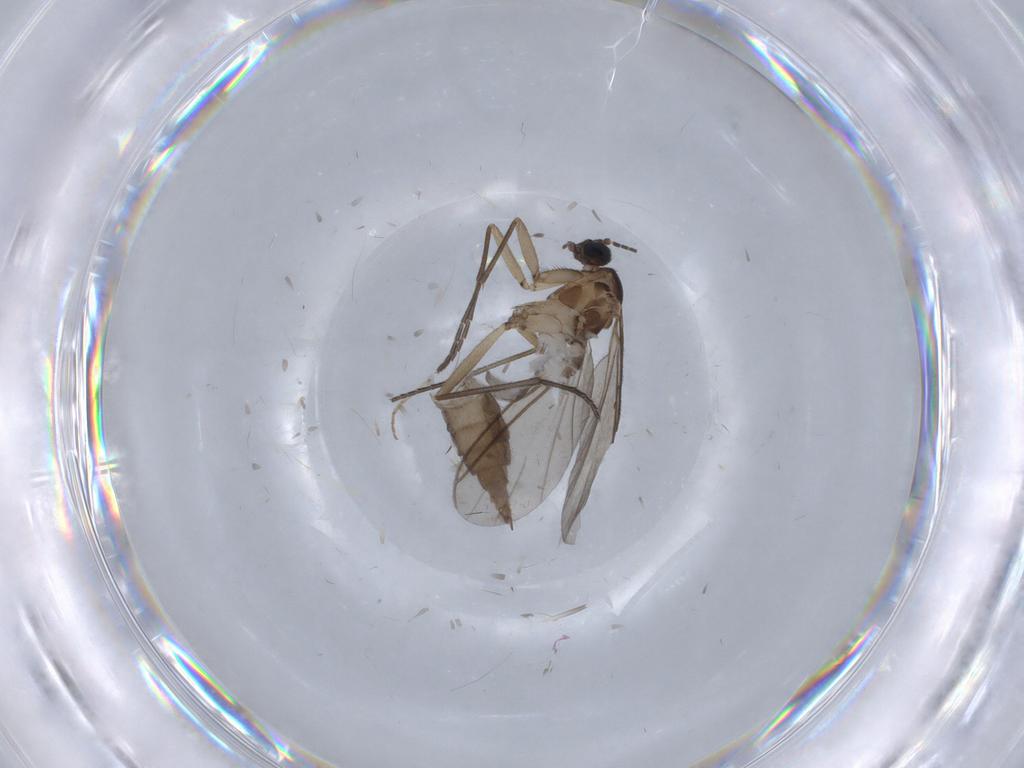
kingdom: Animalia
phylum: Arthropoda
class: Insecta
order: Diptera
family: Sciaridae
